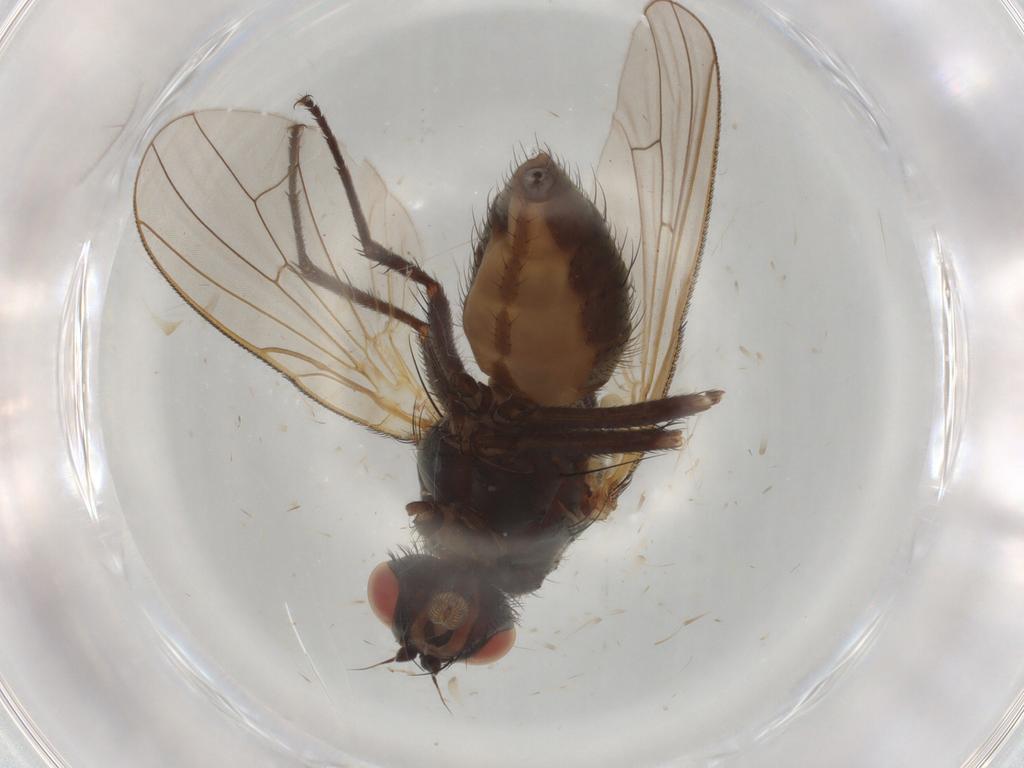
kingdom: Animalia
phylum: Arthropoda
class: Insecta
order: Diptera
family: Anthomyiidae
